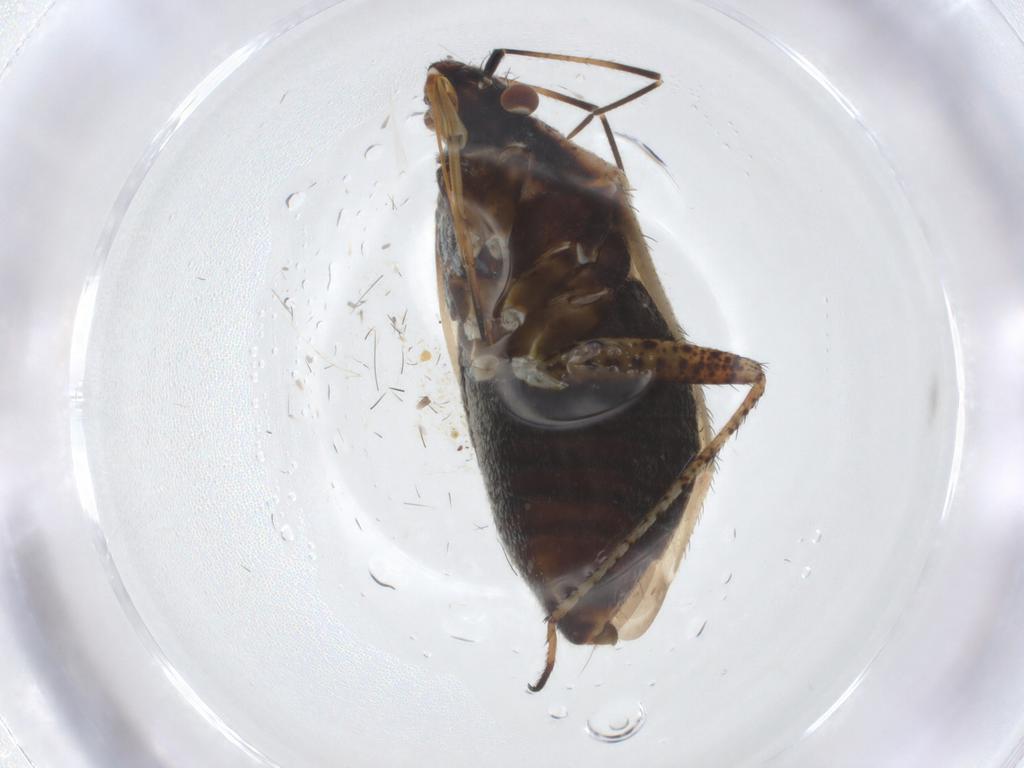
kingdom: Animalia
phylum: Arthropoda
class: Insecta
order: Hemiptera
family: Miridae
